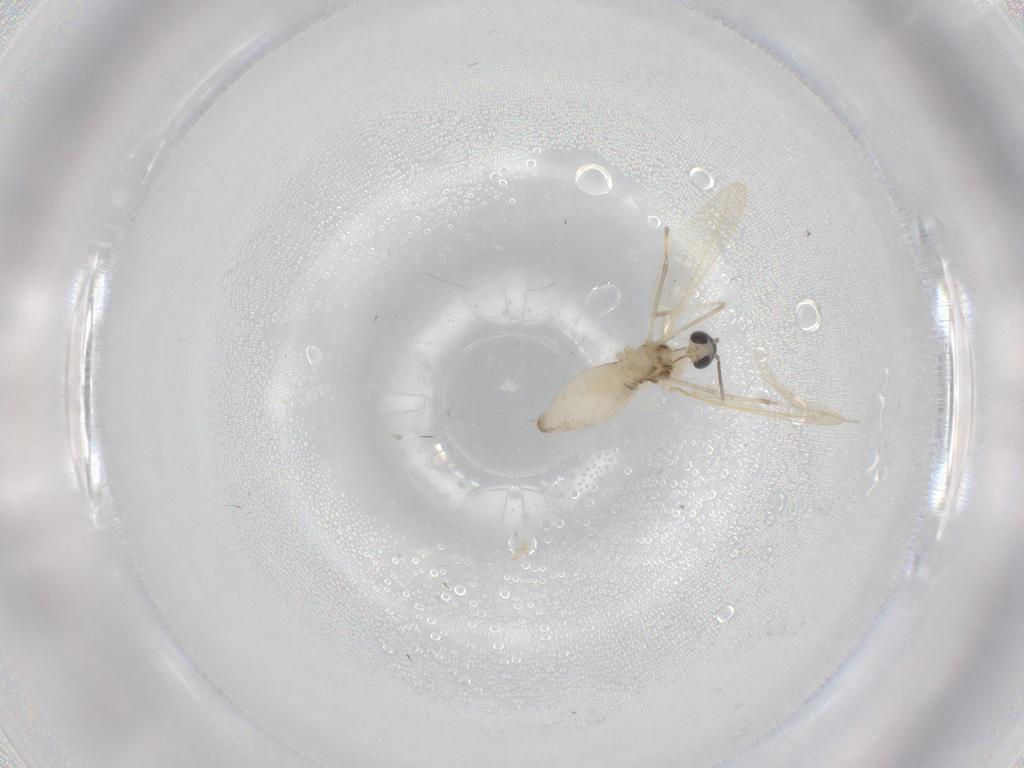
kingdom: Animalia
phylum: Arthropoda
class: Insecta
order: Diptera
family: Cecidomyiidae
